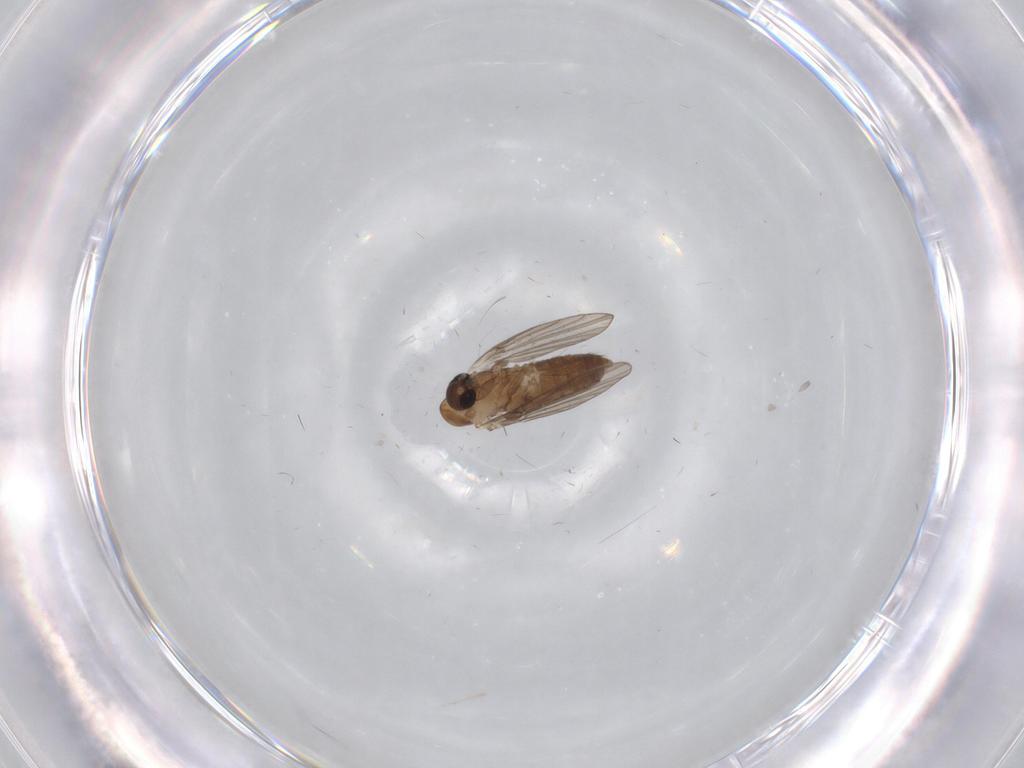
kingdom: Animalia
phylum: Arthropoda
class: Insecta
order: Diptera
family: Psychodidae
